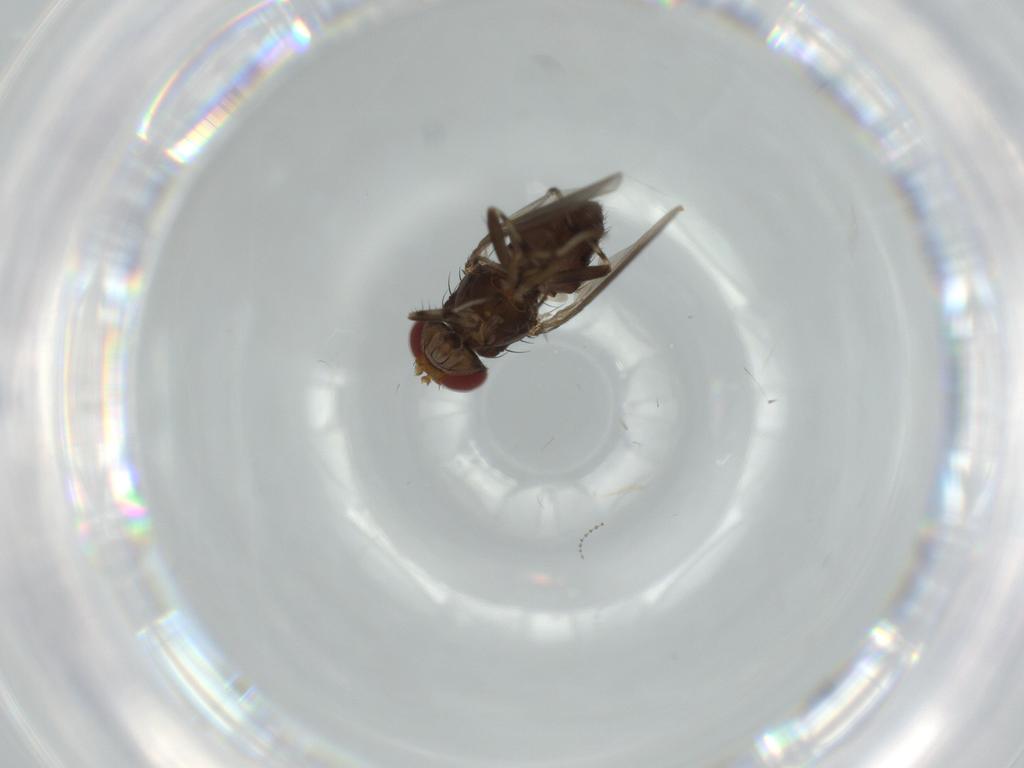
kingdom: Animalia
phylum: Arthropoda
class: Insecta
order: Diptera
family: Heleomyzidae
